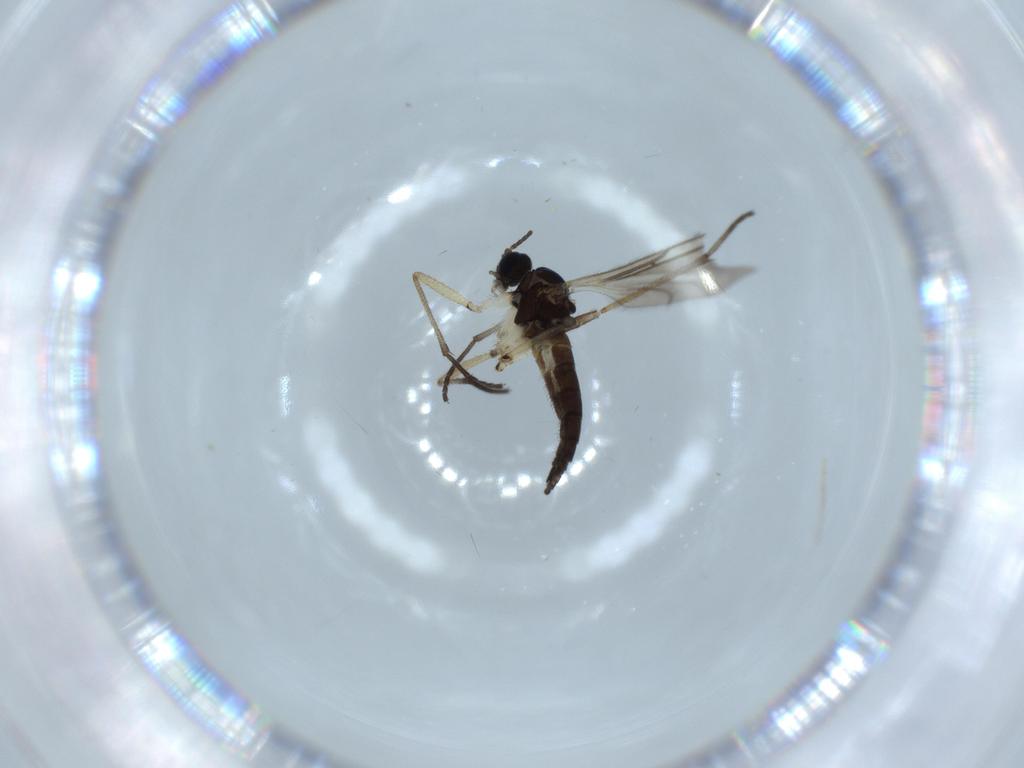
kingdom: Animalia
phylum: Arthropoda
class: Insecta
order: Diptera
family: Sciaridae
